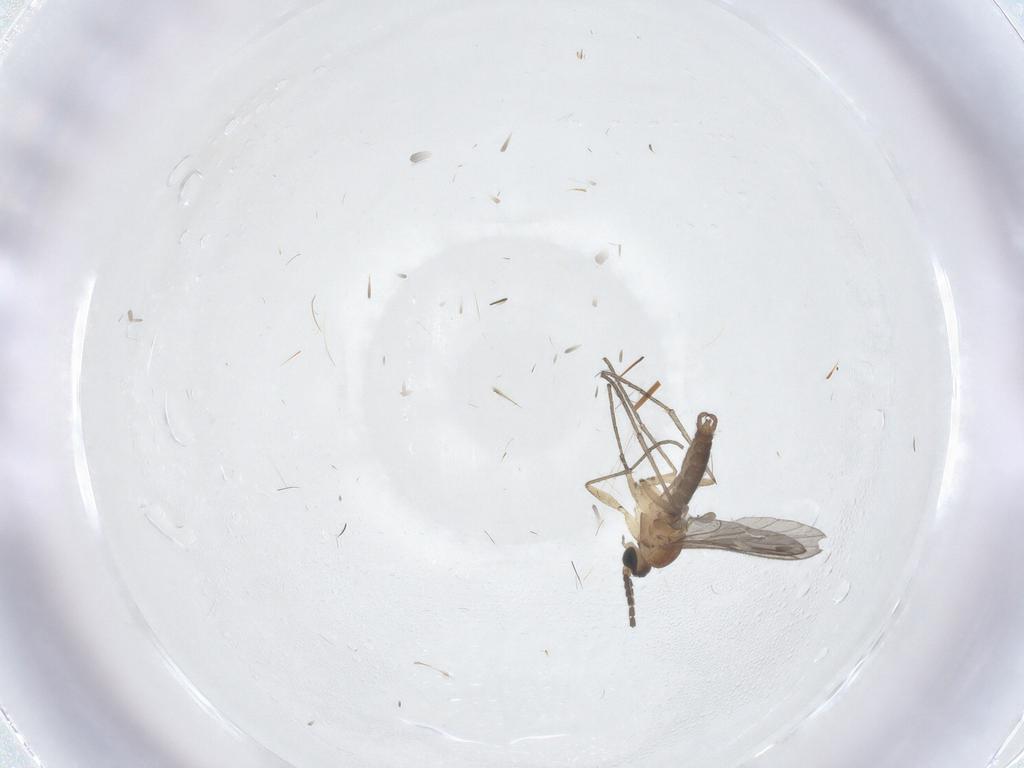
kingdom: Animalia
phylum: Arthropoda
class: Insecta
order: Diptera
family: Sciaridae
